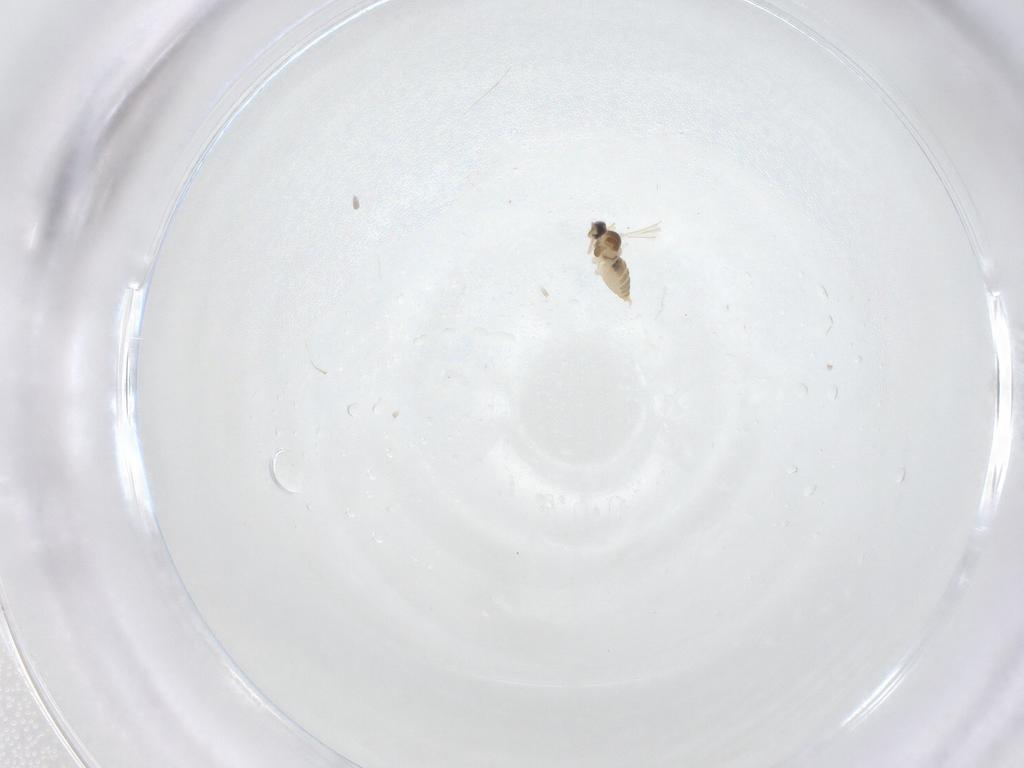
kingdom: Animalia
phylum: Arthropoda
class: Insecta
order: Diptera
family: Cecidomyiidae
